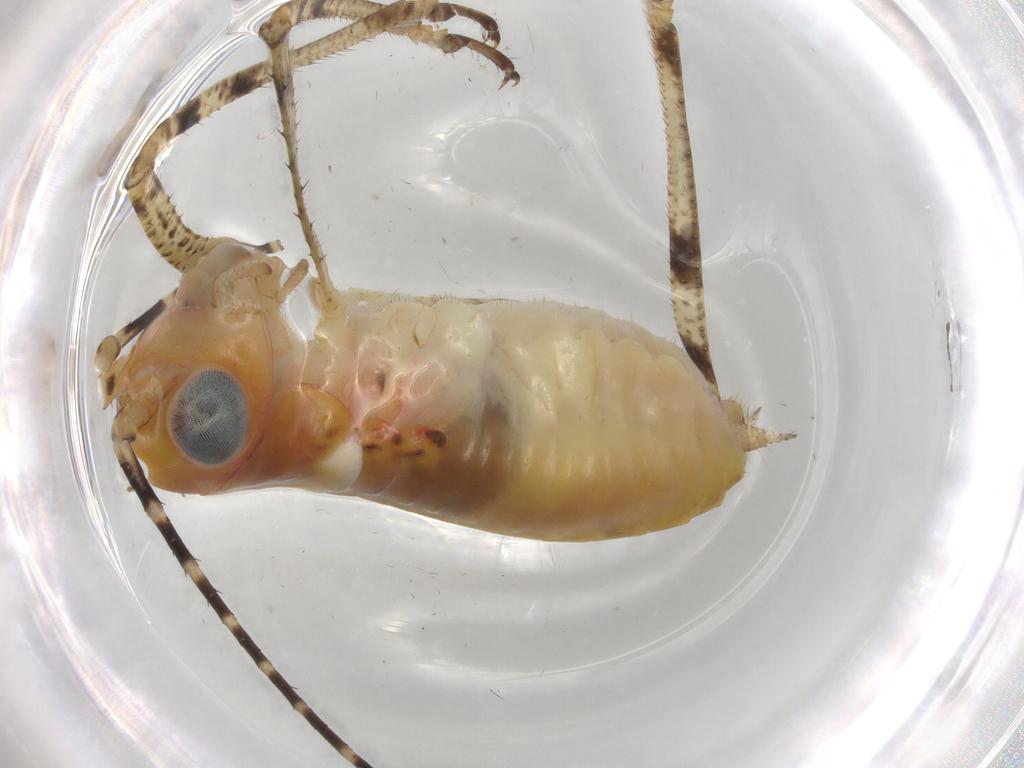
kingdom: Animalia
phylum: Arthropoda
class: Insecta
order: Orthoptera
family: Tettigoniidae
